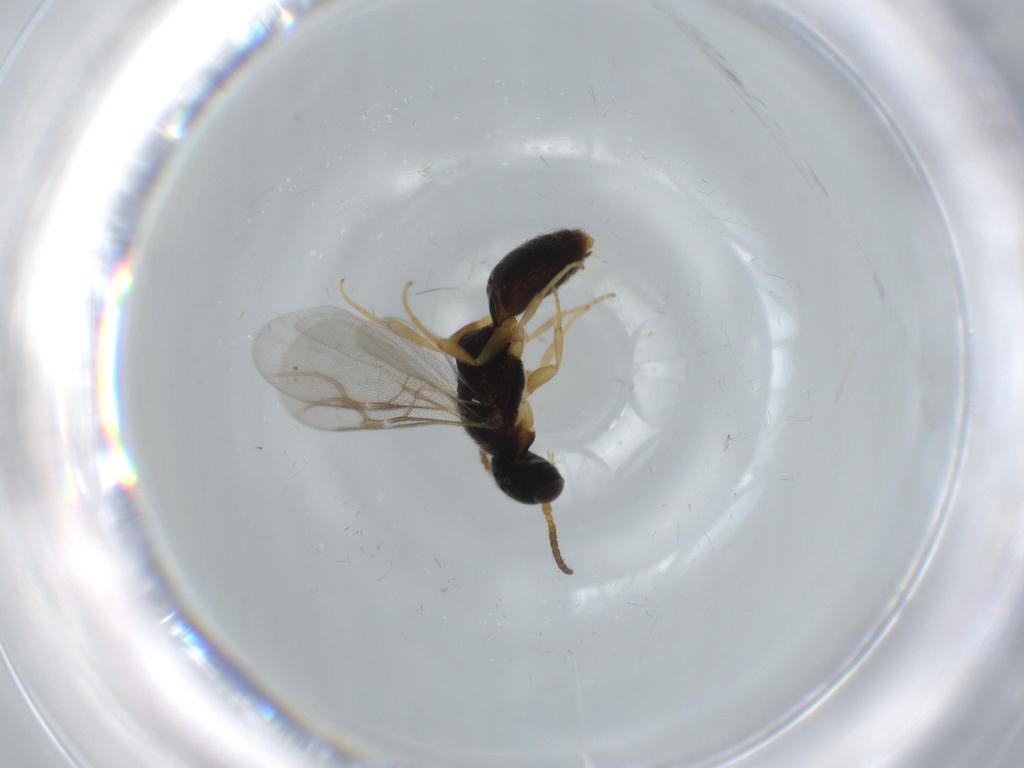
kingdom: Animalia
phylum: Arthropoda
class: Insecta
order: Hymenoptera
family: Bethylidae
